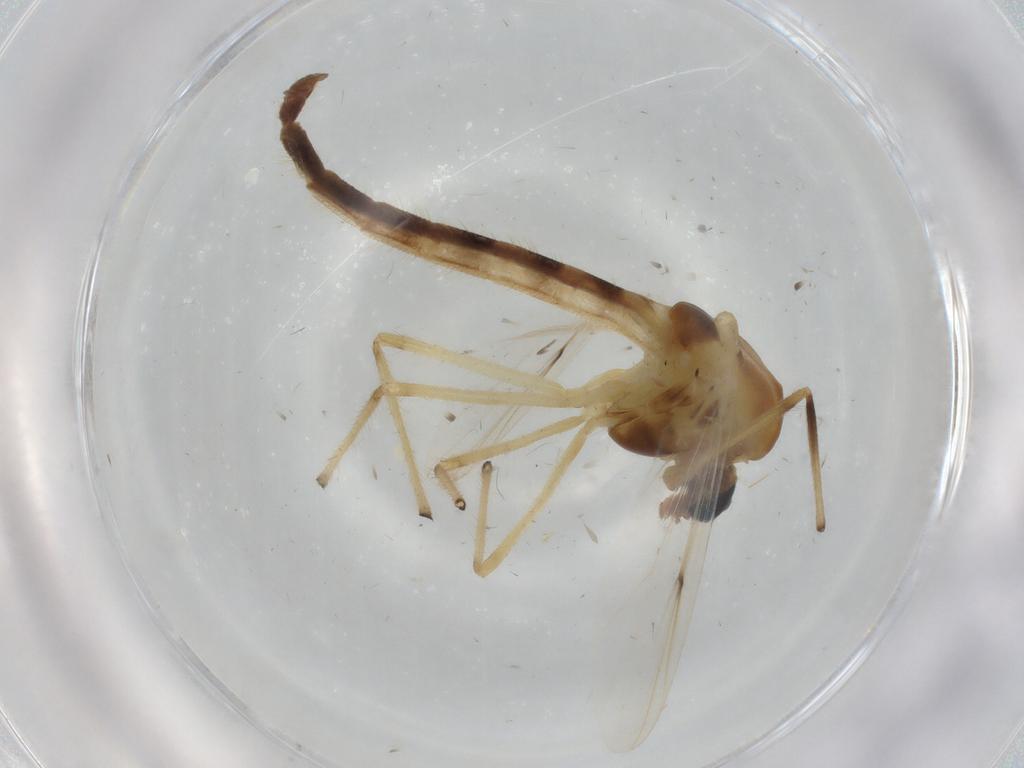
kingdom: Animalia
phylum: Arthropoda
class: Insecta
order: Diptera
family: Chironomidae
